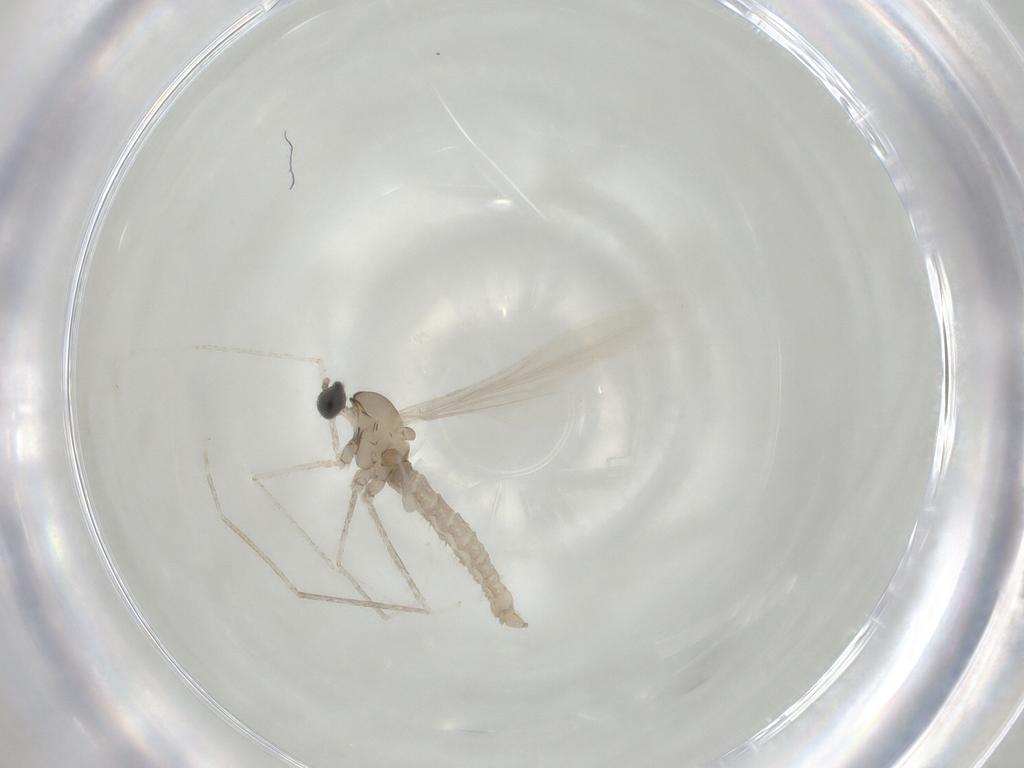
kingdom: Animalia
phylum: Arthropoda
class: Insecta
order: Diptera
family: Cecidomyiidae
